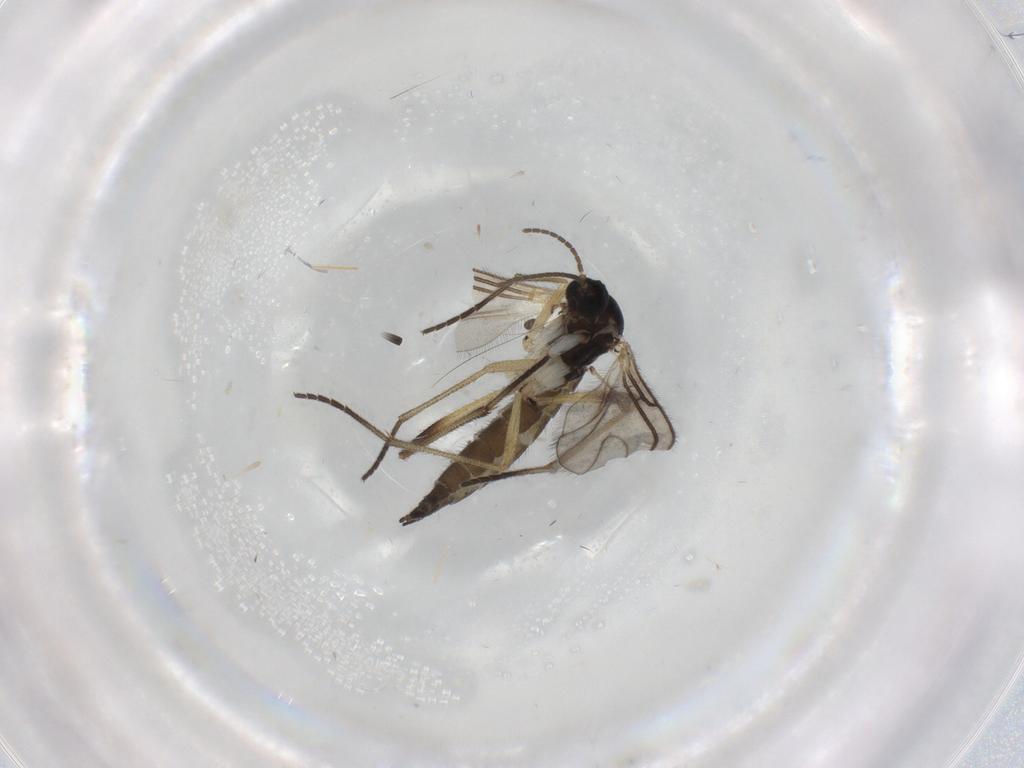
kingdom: Animalia
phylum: Arthropoda
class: Insecta
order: Diptera
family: Sciaridae
